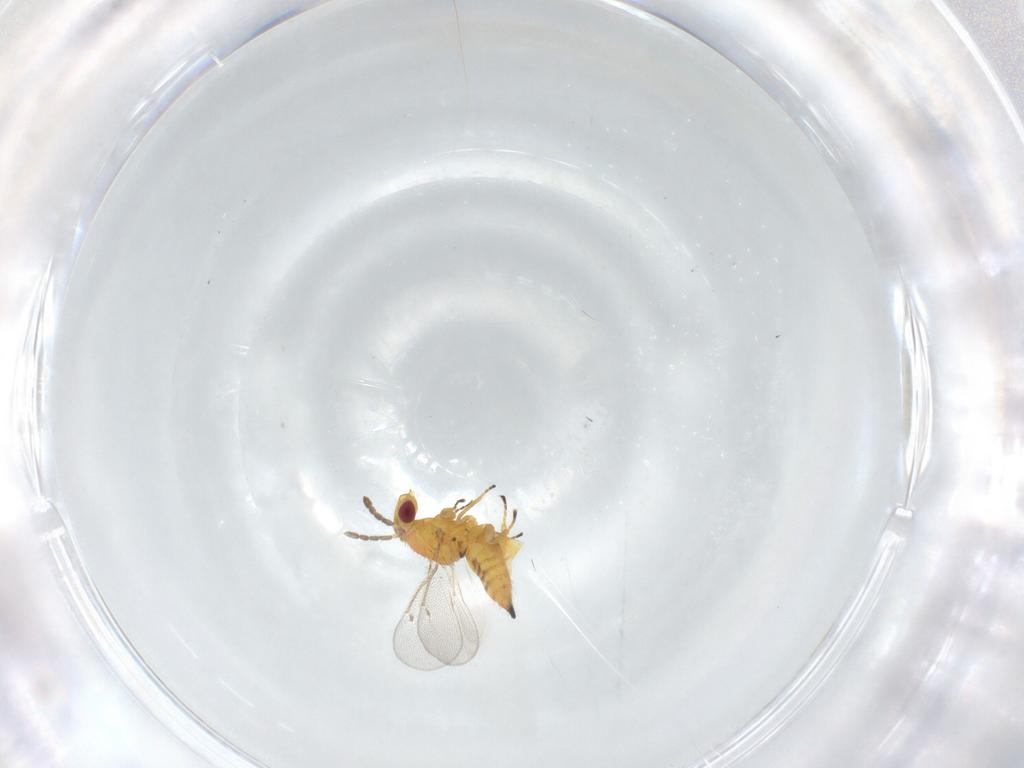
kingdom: Animalia
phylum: Arthropoda
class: Insecta
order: Hymenoptera
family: Eulophidae
